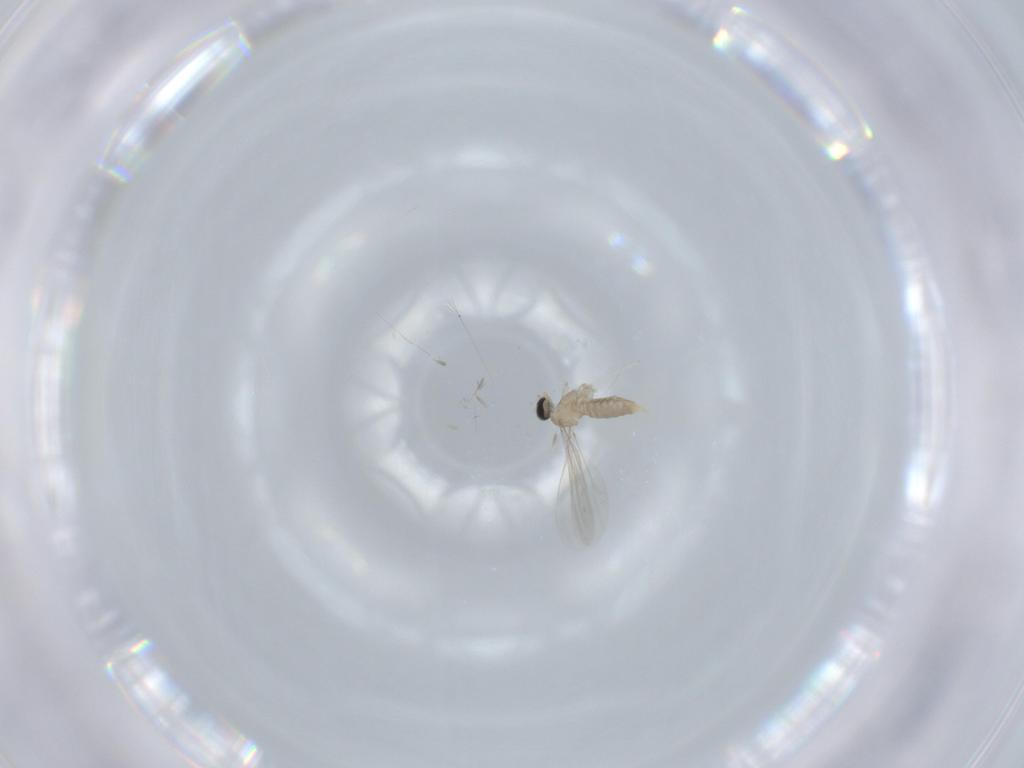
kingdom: Animalia
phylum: Arthropoda
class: Insecta
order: Diptera
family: Cecidomyiidae
